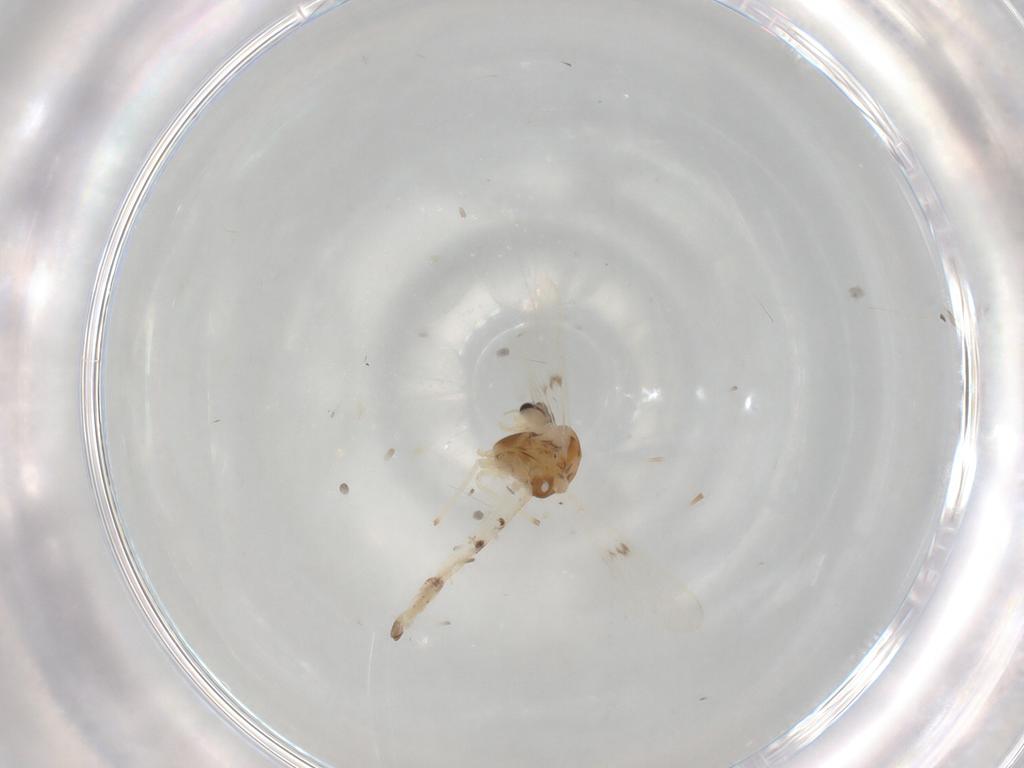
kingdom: Animalia
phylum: Arthropoda
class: Insecta
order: Diptera
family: Chironomidae
